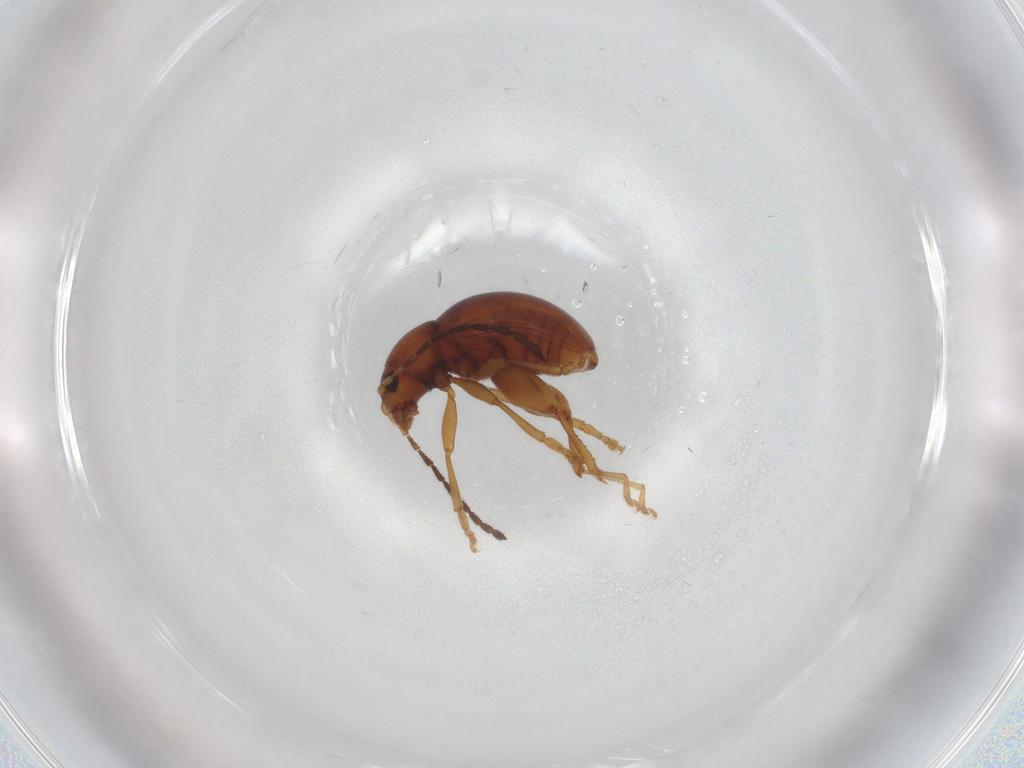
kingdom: Animalia
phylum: Arthropoda
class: Insecta
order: Coleoptera
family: Chrysomelidae
